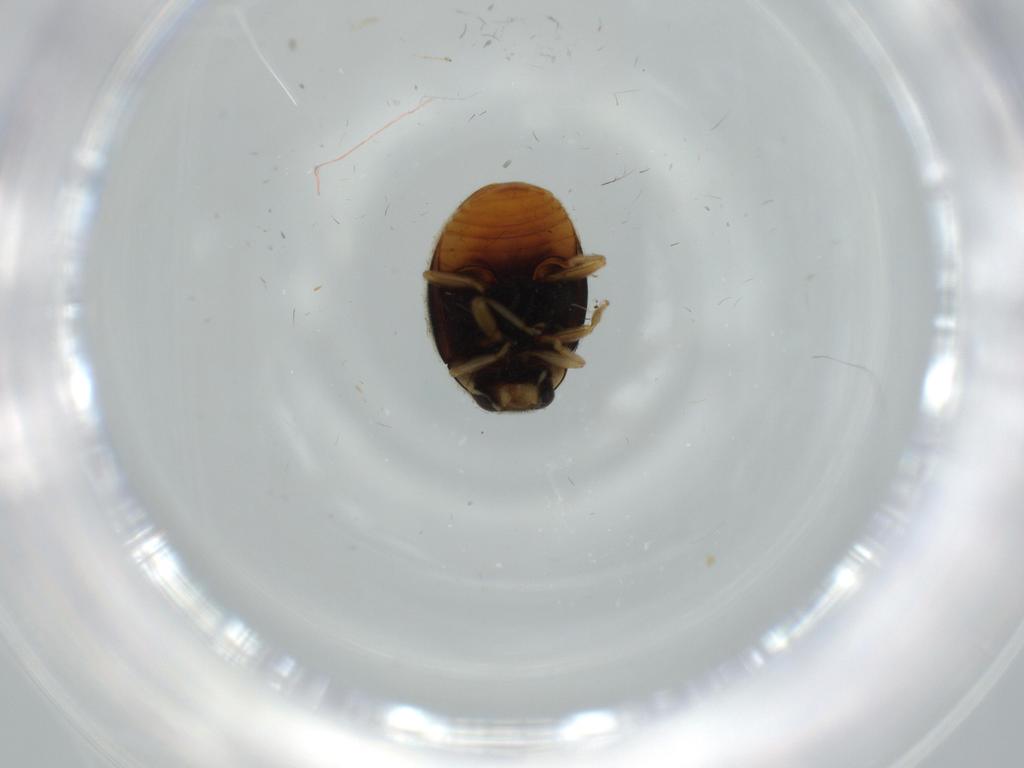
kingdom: Animalia
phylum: Arthropoda
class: Insecta
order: Coleoptera
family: Coccinellidae
